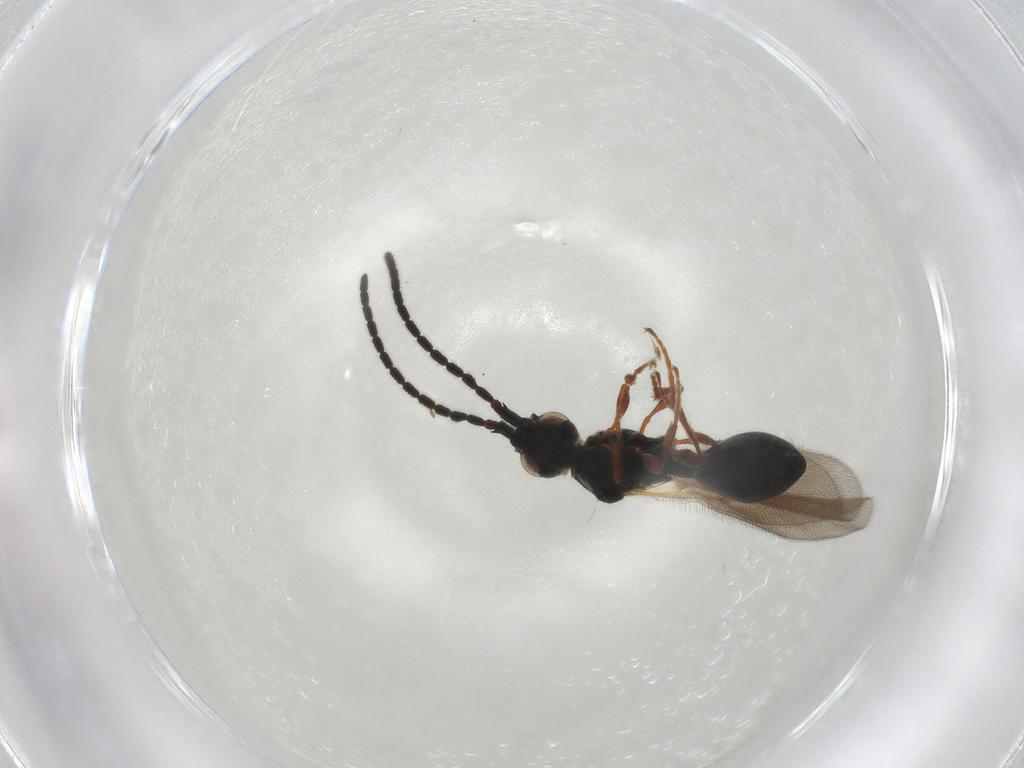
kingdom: Animalia
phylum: Arthropoda
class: Insecta
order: Hymenoptera
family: Diapriidae
